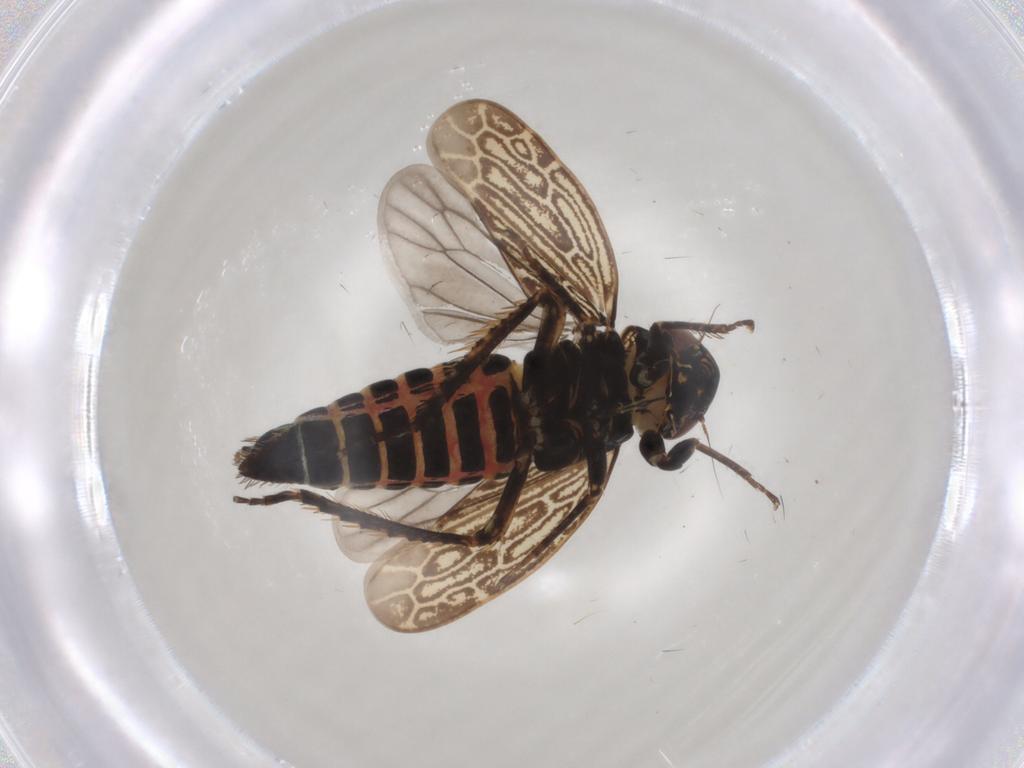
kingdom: Animalia
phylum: Arthropoda
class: Insecta
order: Hemiptera
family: Cicadellidae
